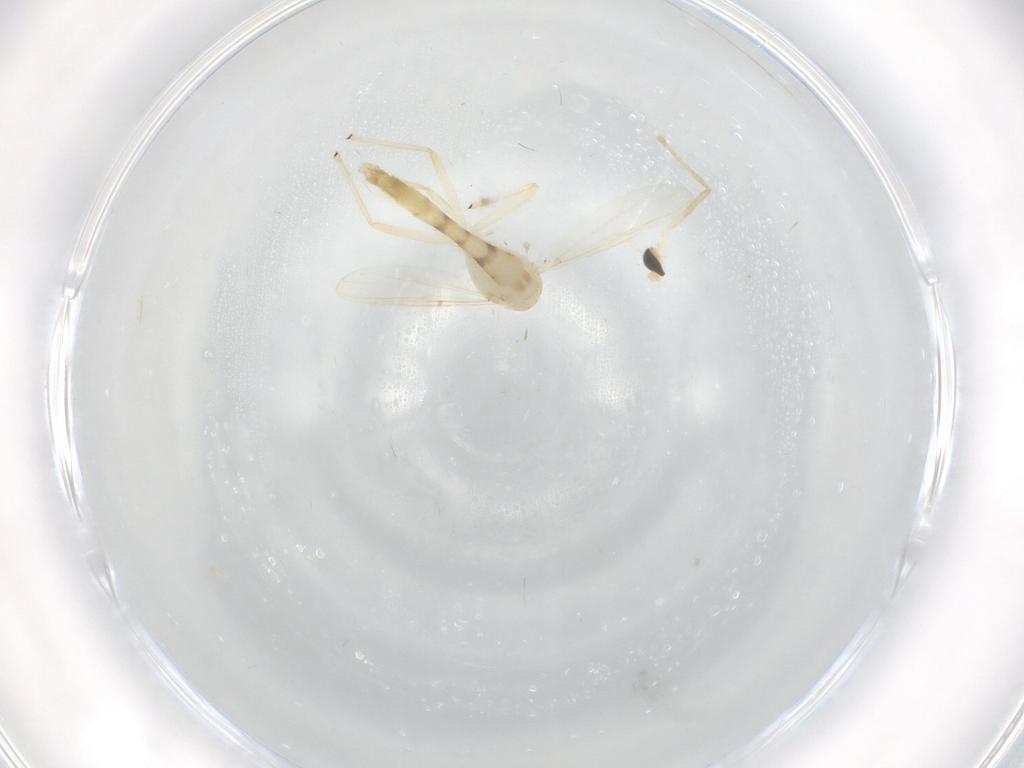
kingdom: Animalia
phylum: Arthropoda
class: Insecta
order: Diptera
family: Chironomidae
